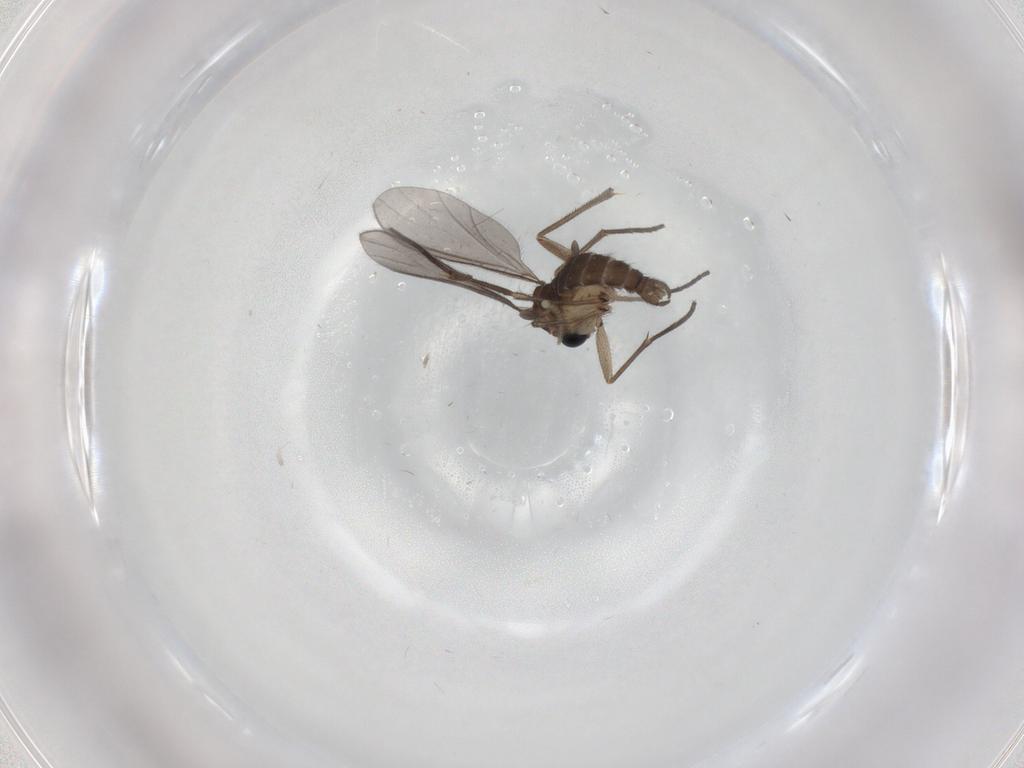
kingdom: Animalia
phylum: Arthropoda
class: Insecta
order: Diptera
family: Sciaridae
